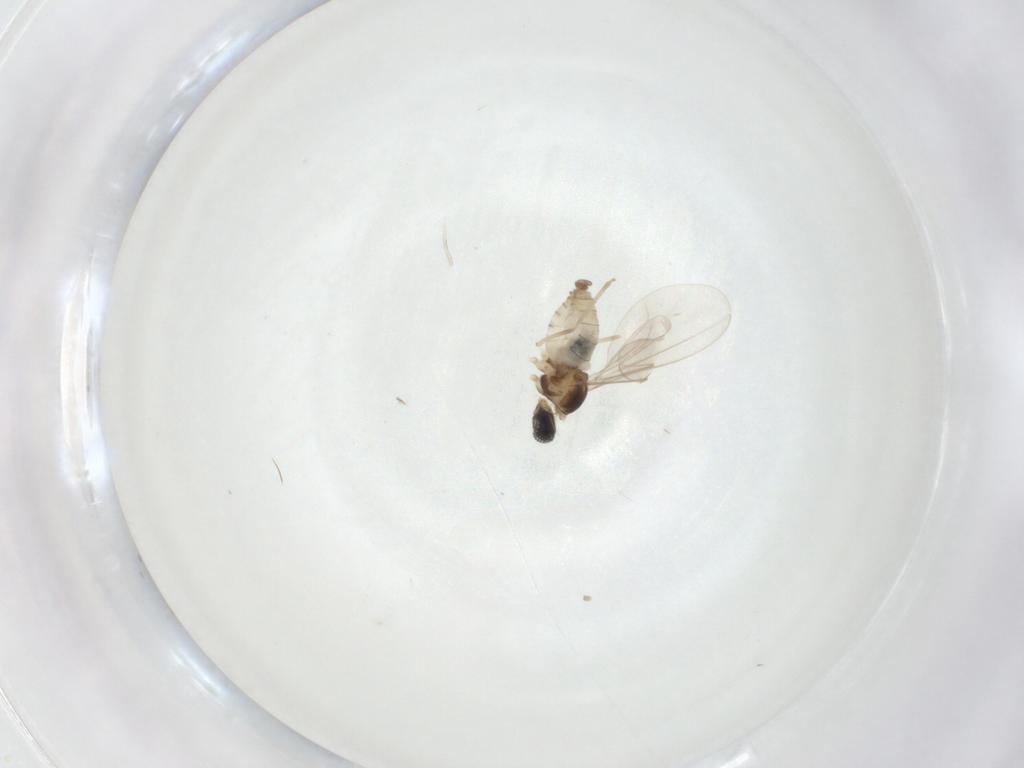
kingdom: Animalia
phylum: Arthropoda
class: Insecta
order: Diptera
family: Cecidomyiidae
